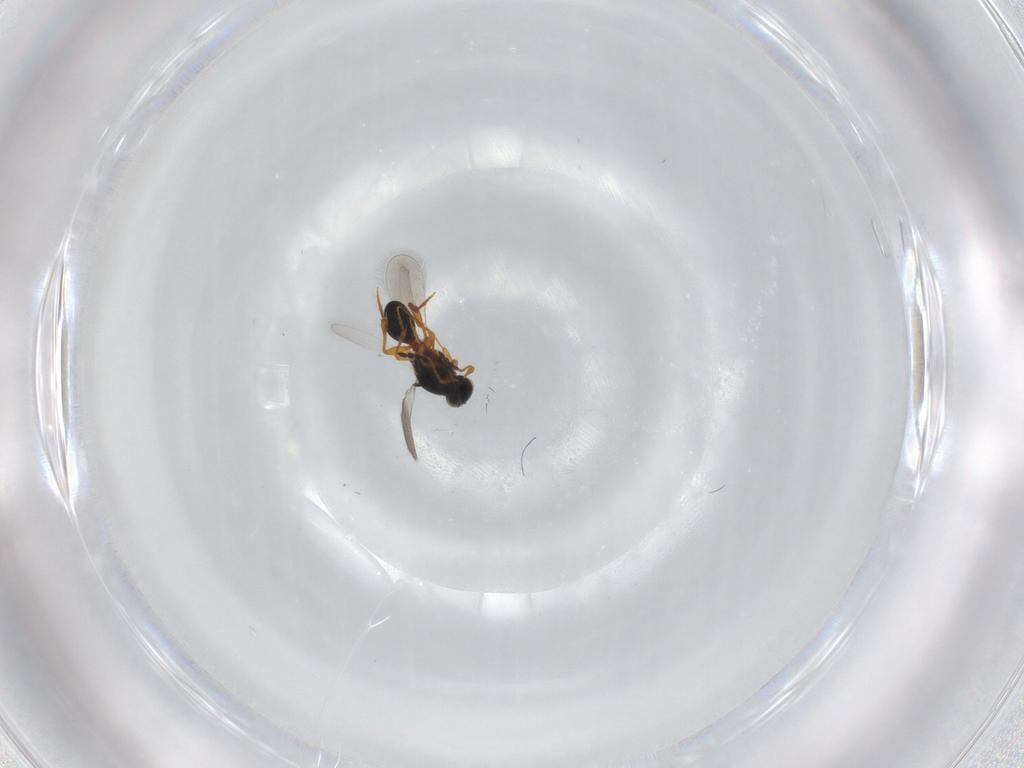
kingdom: Animalia
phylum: Arthropoda
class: Insecta
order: Hymenoptera
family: Platygastridae
